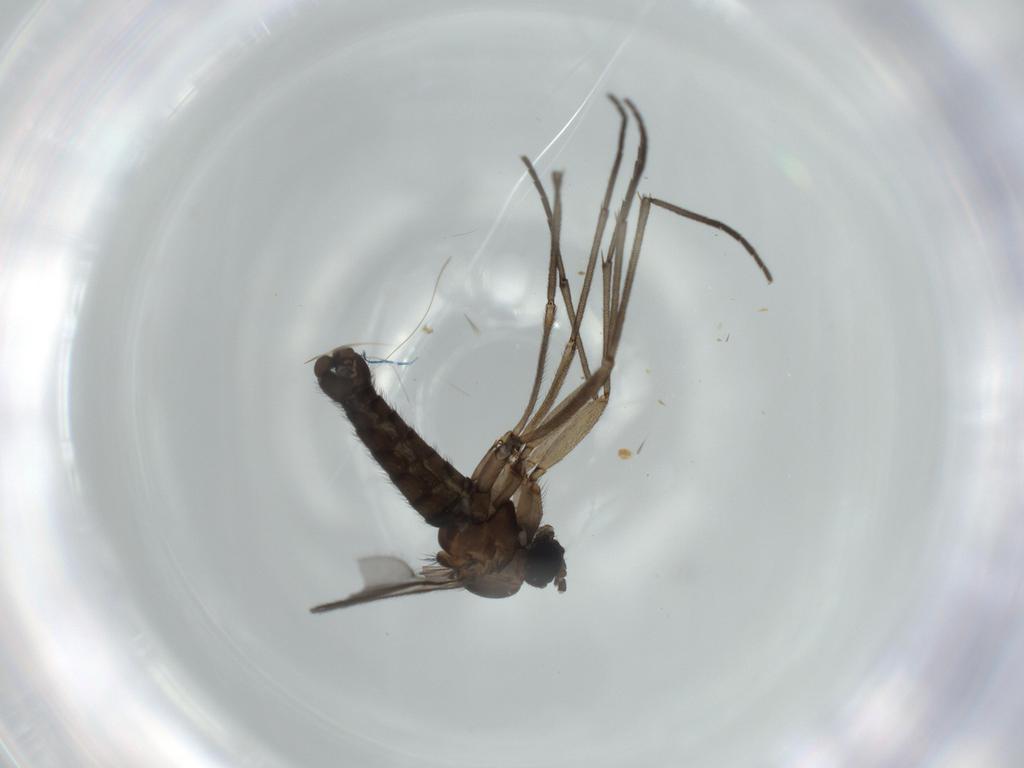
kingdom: Animalia
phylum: Arthropoda
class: Insecta
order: Diptera
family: Sciaridae
